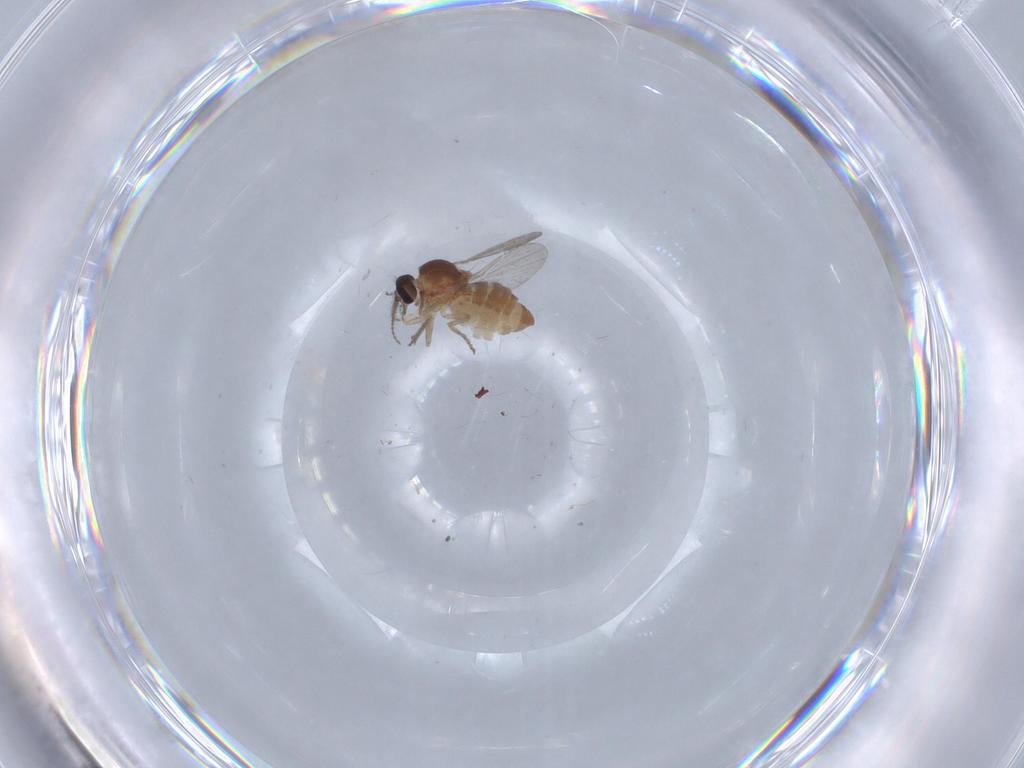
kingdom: Animalia
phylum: Arthropoda
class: Insecta
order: Diptera
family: Ceratopogonidae
